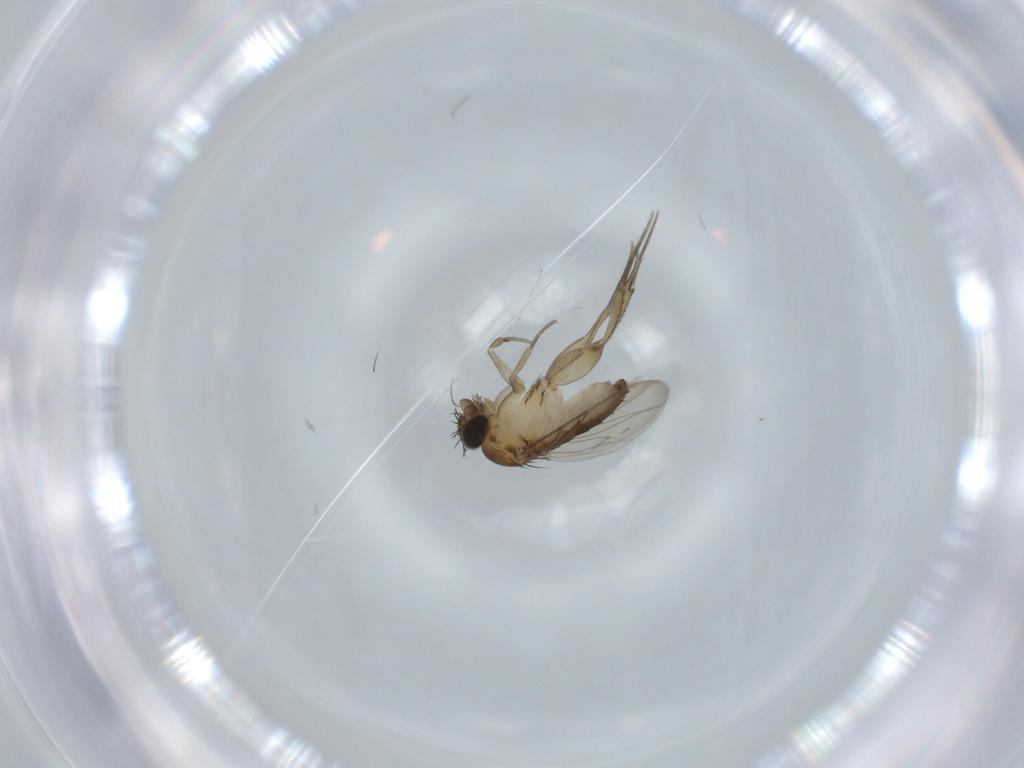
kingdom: Animalia
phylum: Arthropoda
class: Insecta
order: Diptera
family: Phoridae
